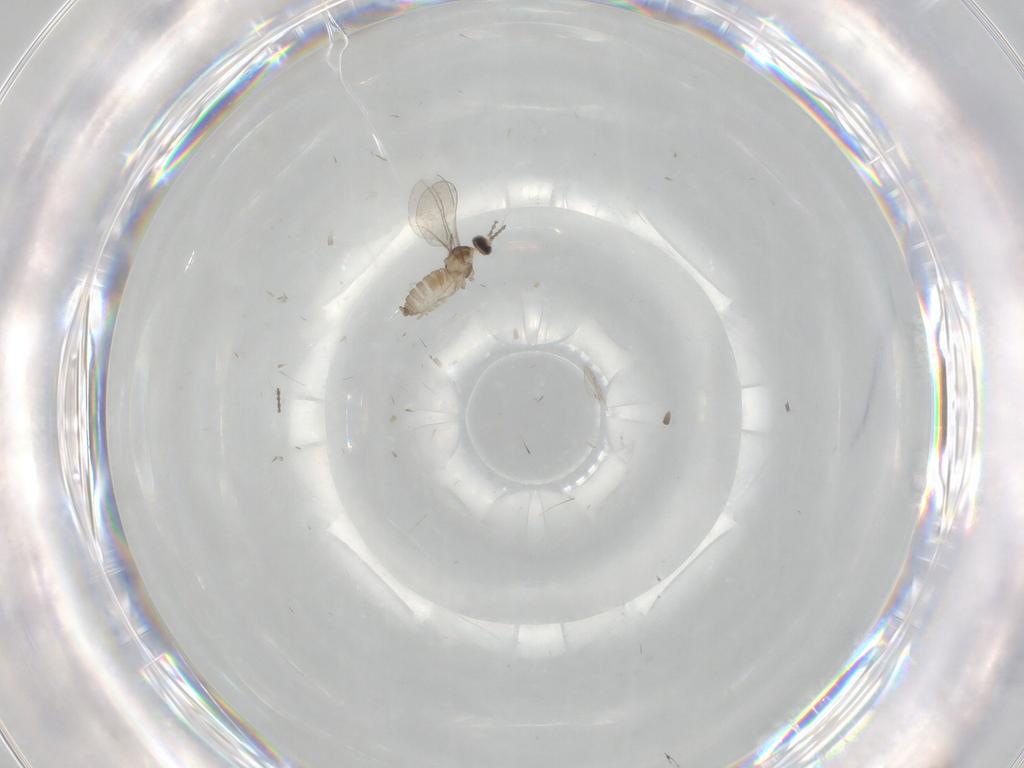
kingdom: Animalia
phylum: Arthropoda
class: Insecta
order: Diptera
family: Cecidomyiidae
